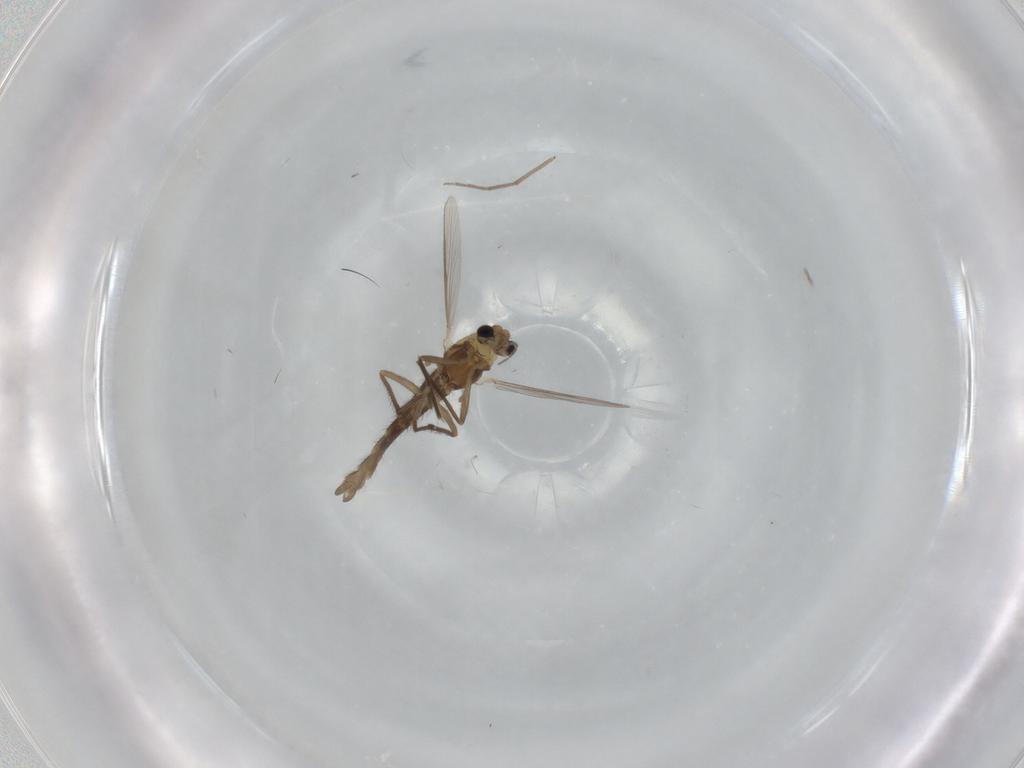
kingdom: Animalia
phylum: Arthropoda
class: Insecta
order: Diptera
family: Chironomidae
